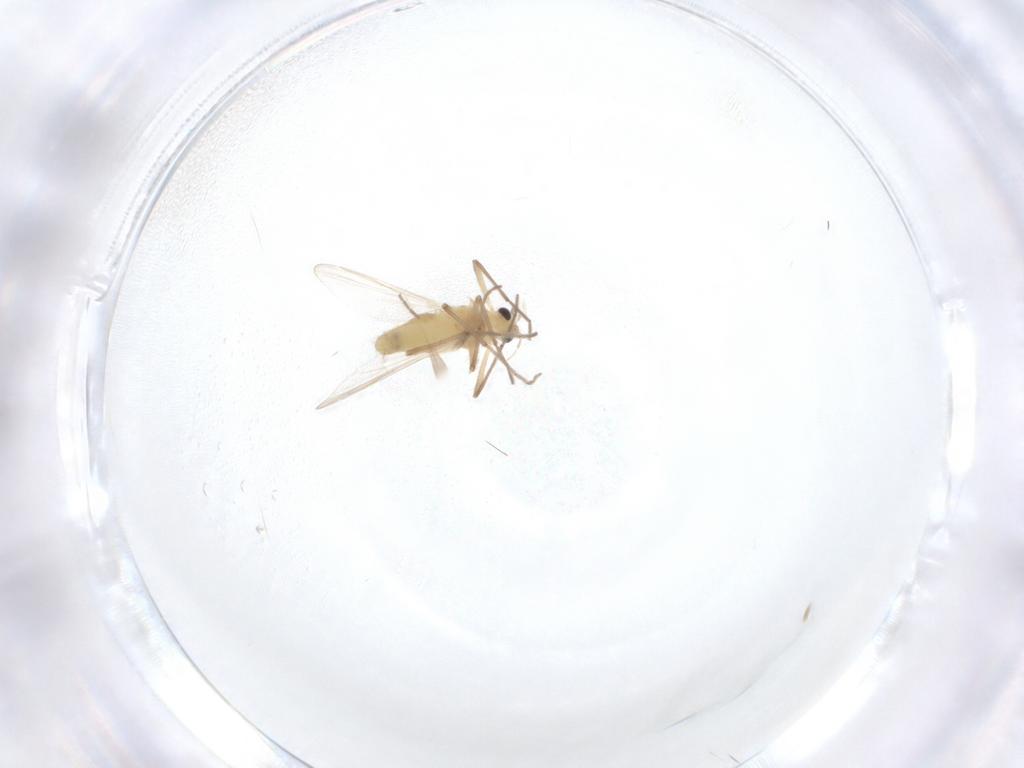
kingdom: Animalia
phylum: Arthropoda
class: Insecta
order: Diptera
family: Chironomidae
